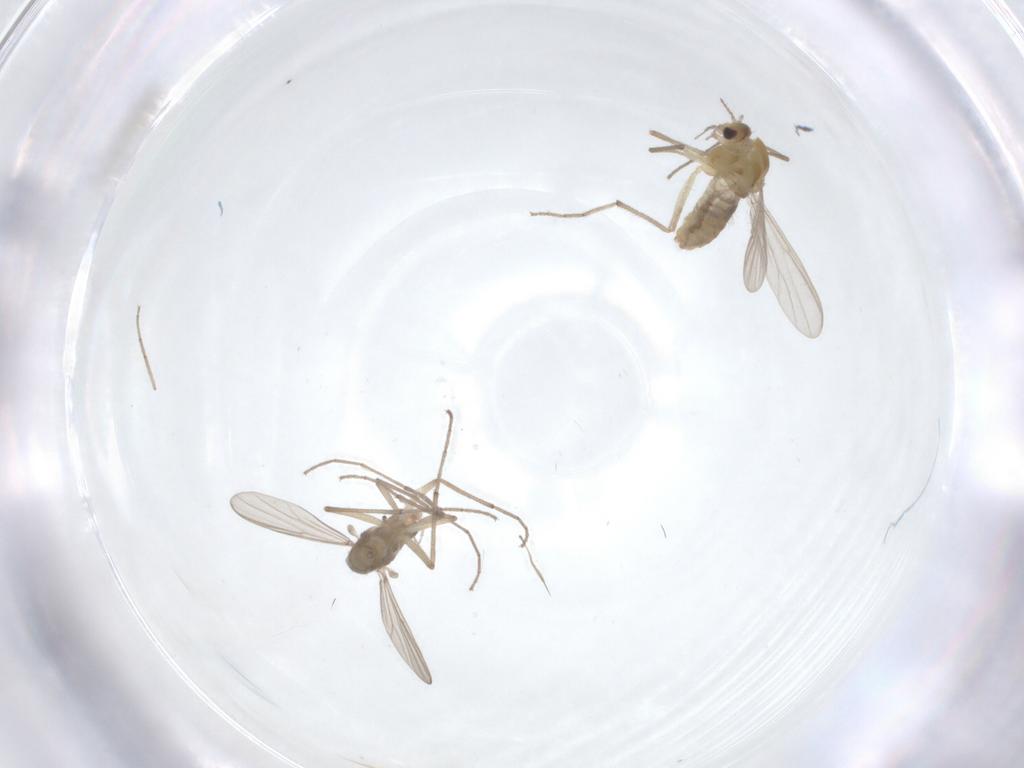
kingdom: Animalia
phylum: Arthropoda
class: Insecta
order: Diptera
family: Chironomidae
